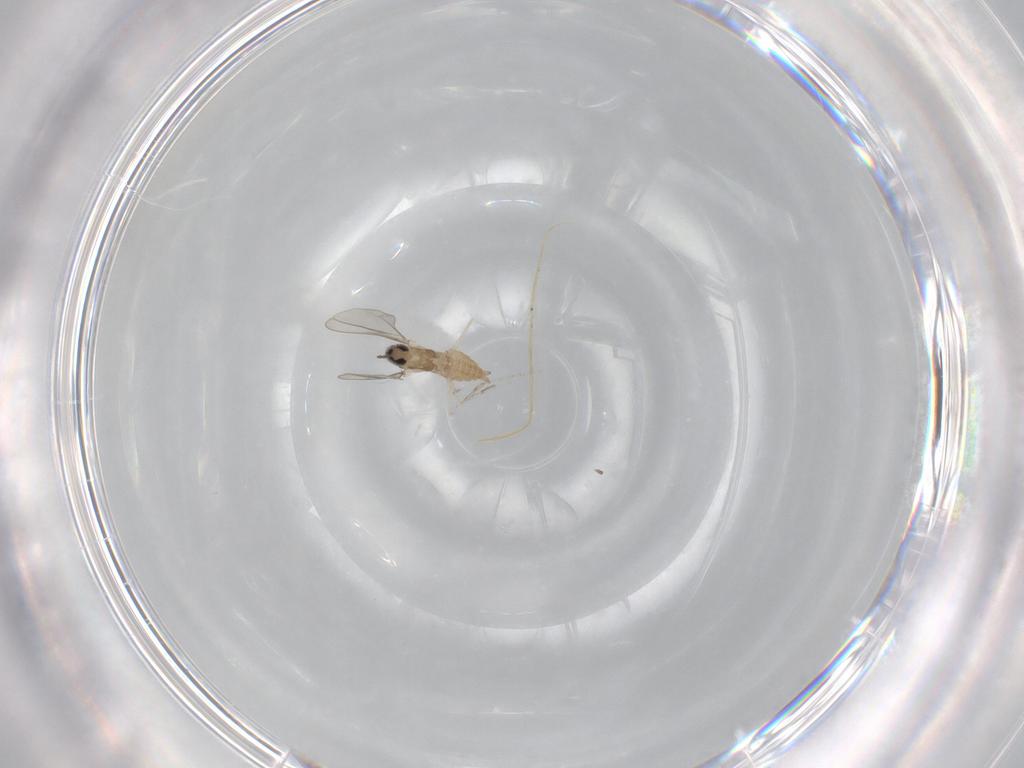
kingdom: Animalia
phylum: Arthropoda
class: Insecta
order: Diptera
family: Cecidomyiidae
